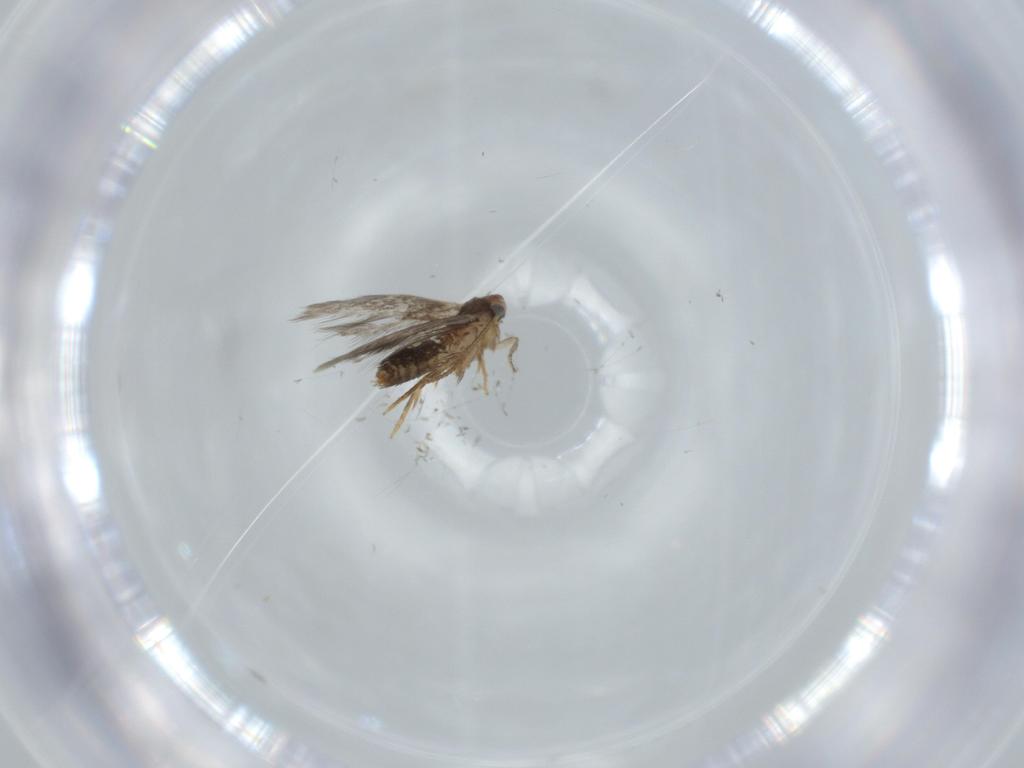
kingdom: Animalia
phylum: Arthropoda
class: Insecta
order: Lepidoptera
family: Nepticulidae
